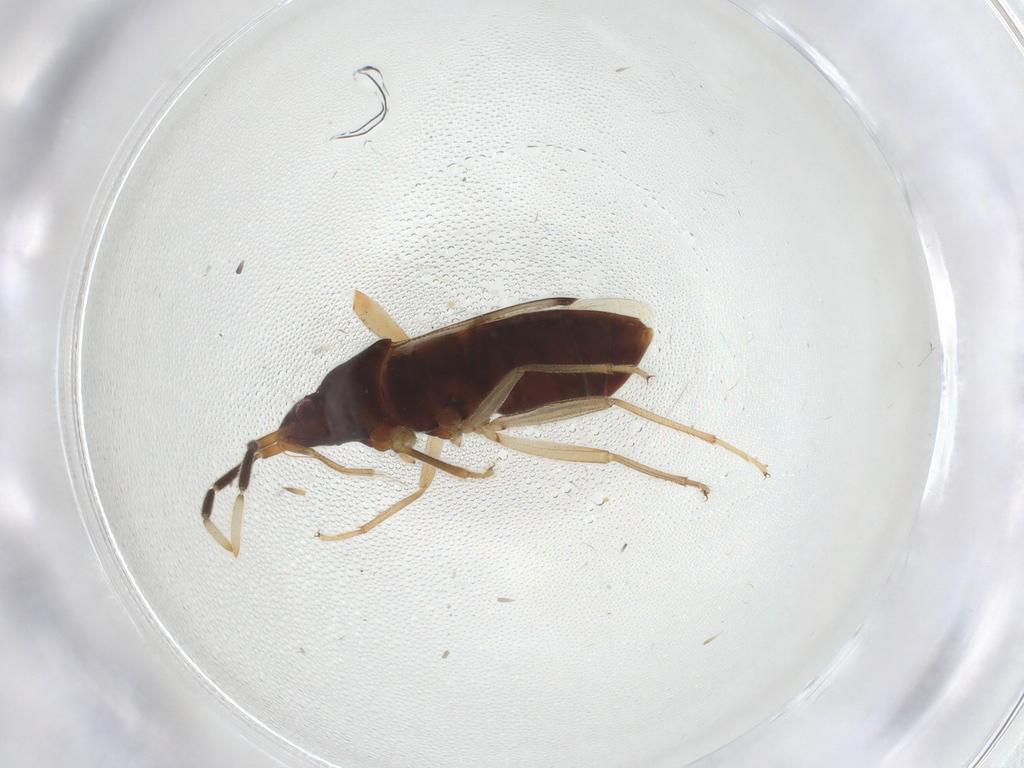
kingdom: Animalia
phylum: Arthropoda
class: Insecta
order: Hemiptera
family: Rhyparochromidae
